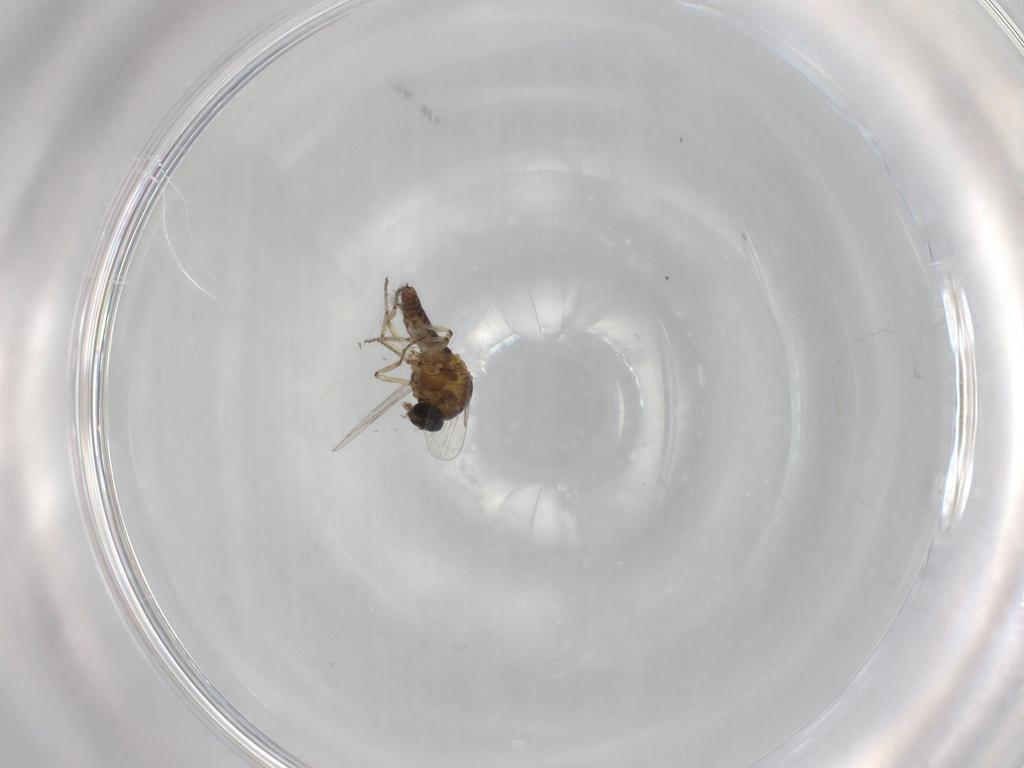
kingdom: Animalia
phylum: Arthropoda
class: Insecta
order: Diptera
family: Ceratopogonidae
